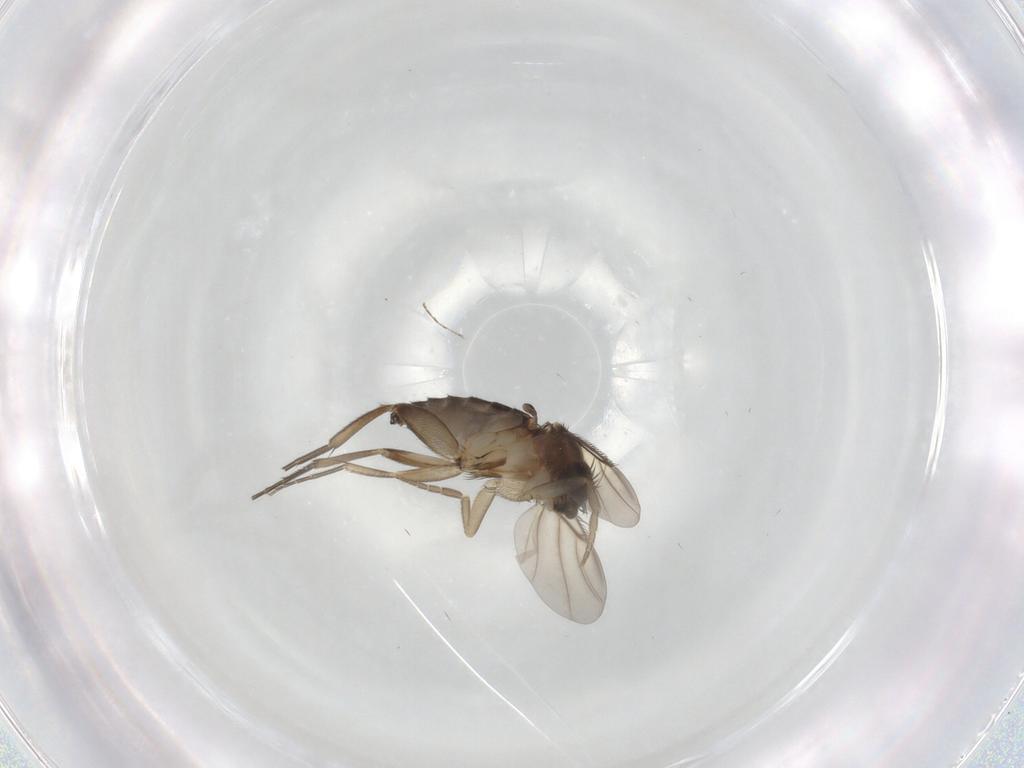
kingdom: Animalia
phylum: Arthropoda
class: Insecta
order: Diptera
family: Phoridae
